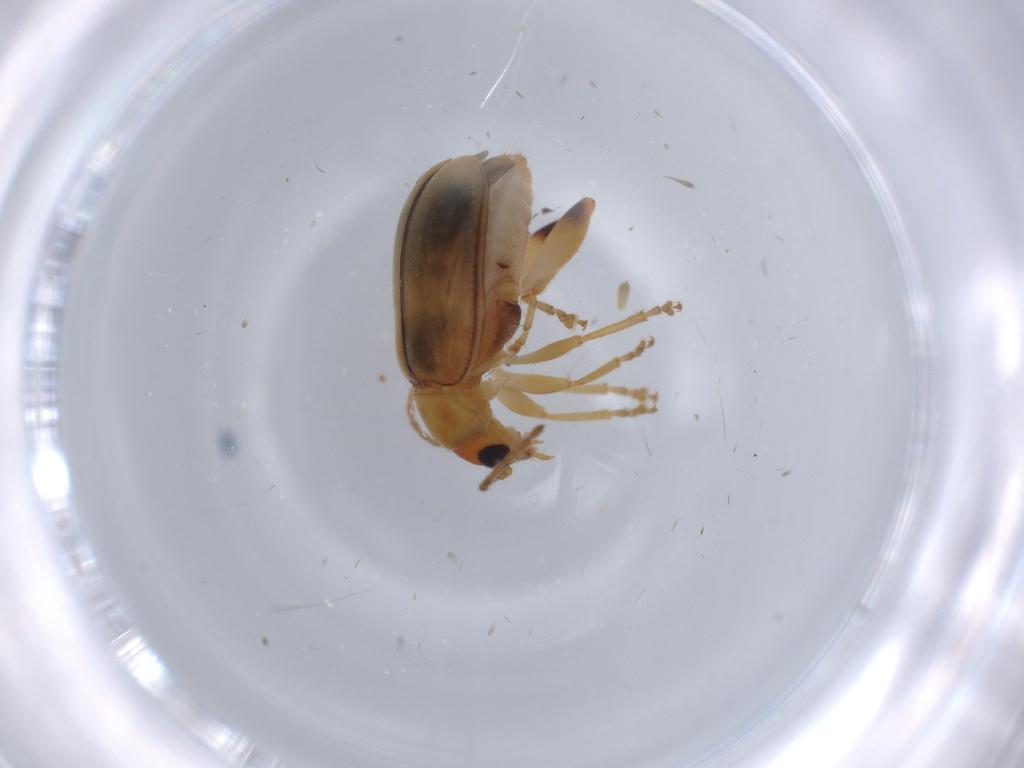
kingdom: Animalia
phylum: Arthropoda
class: Insecta
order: Coleoptera
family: Chrysomelidae
